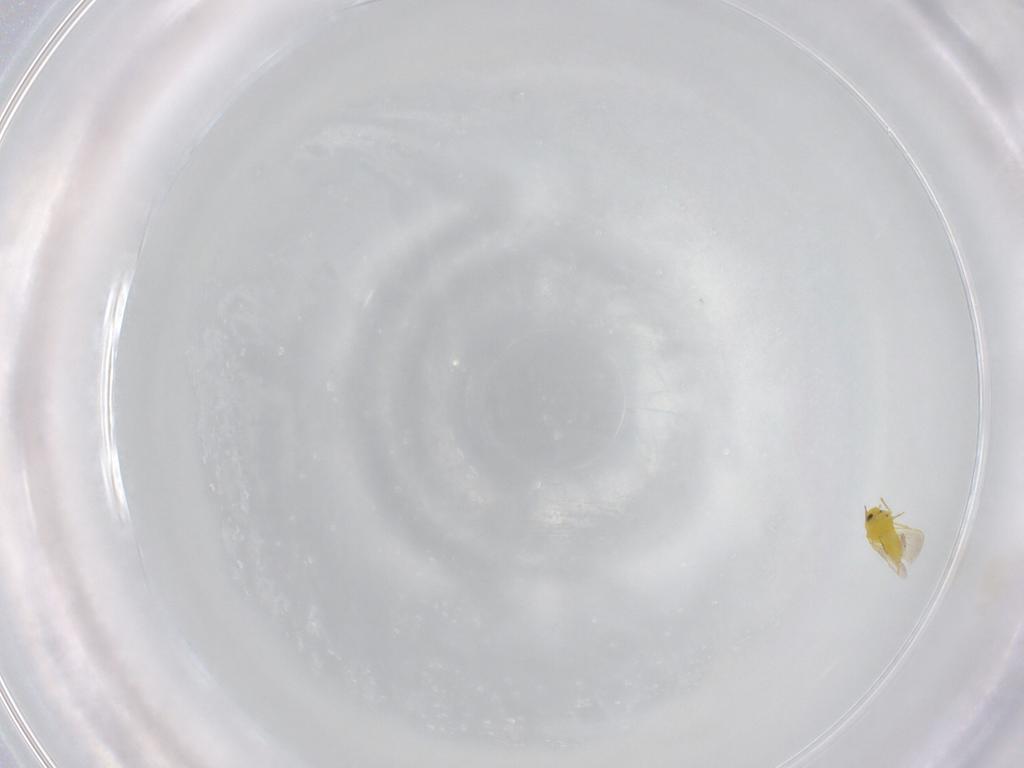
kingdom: Animalia
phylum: Arthropoda
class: Insecta
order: Hemiptera
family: Aleyrodidae
